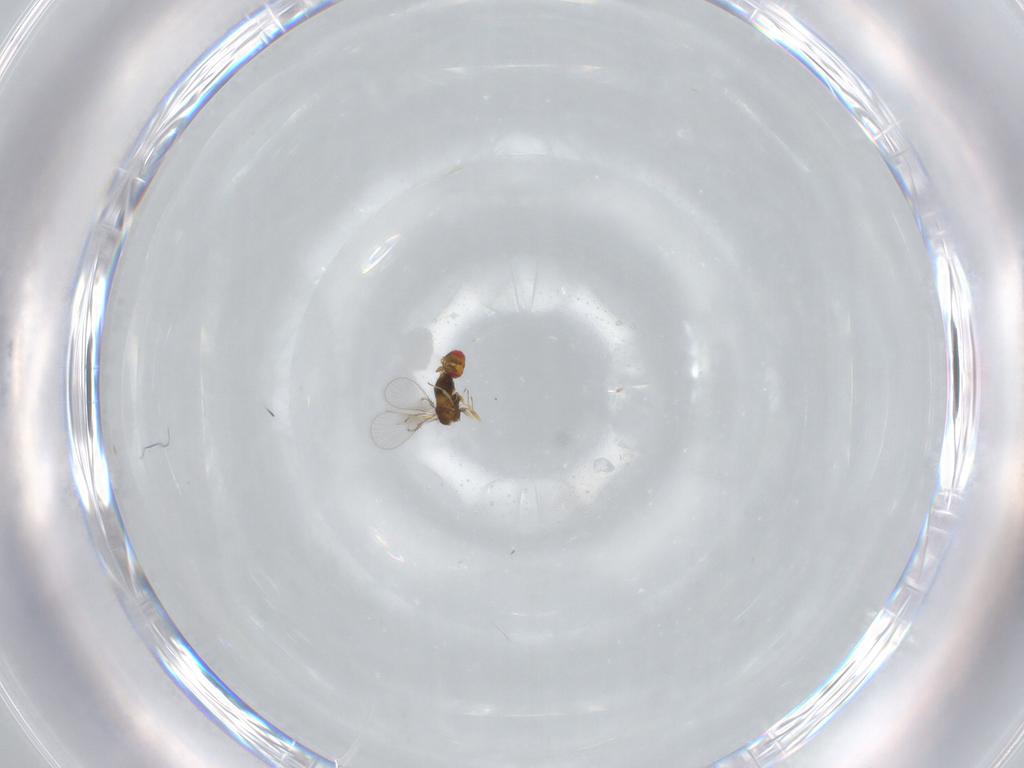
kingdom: Animalia
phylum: Arthropoda
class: Insecta
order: Hymenoptera
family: Trichogrammatidae
